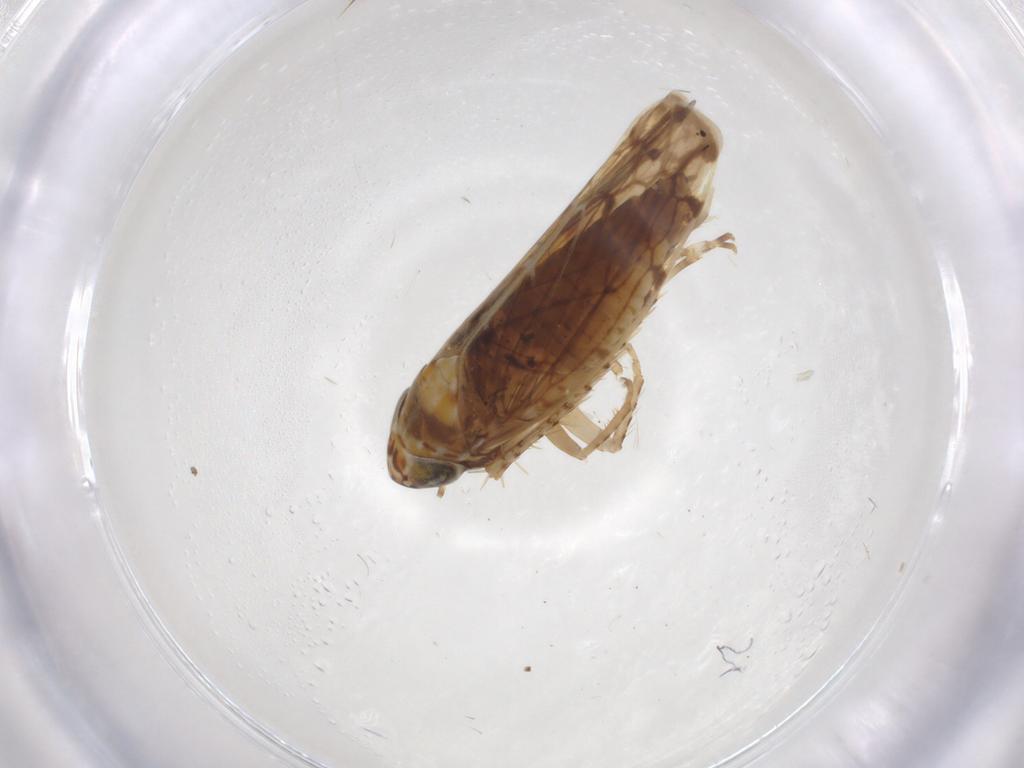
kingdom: Animalia
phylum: Arthropoda
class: Insecta
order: Hemiptera
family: Cicadellidae
